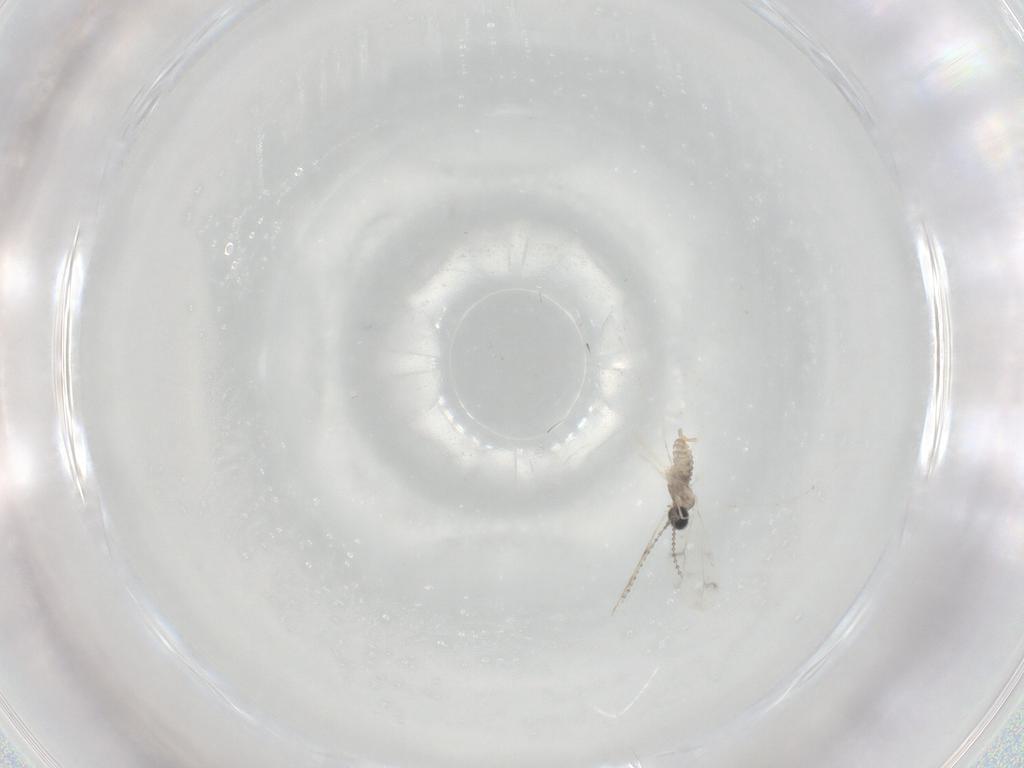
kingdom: Animalia
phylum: Arthropoda
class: Insecta
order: Diptera
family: Cecidomyiidae
